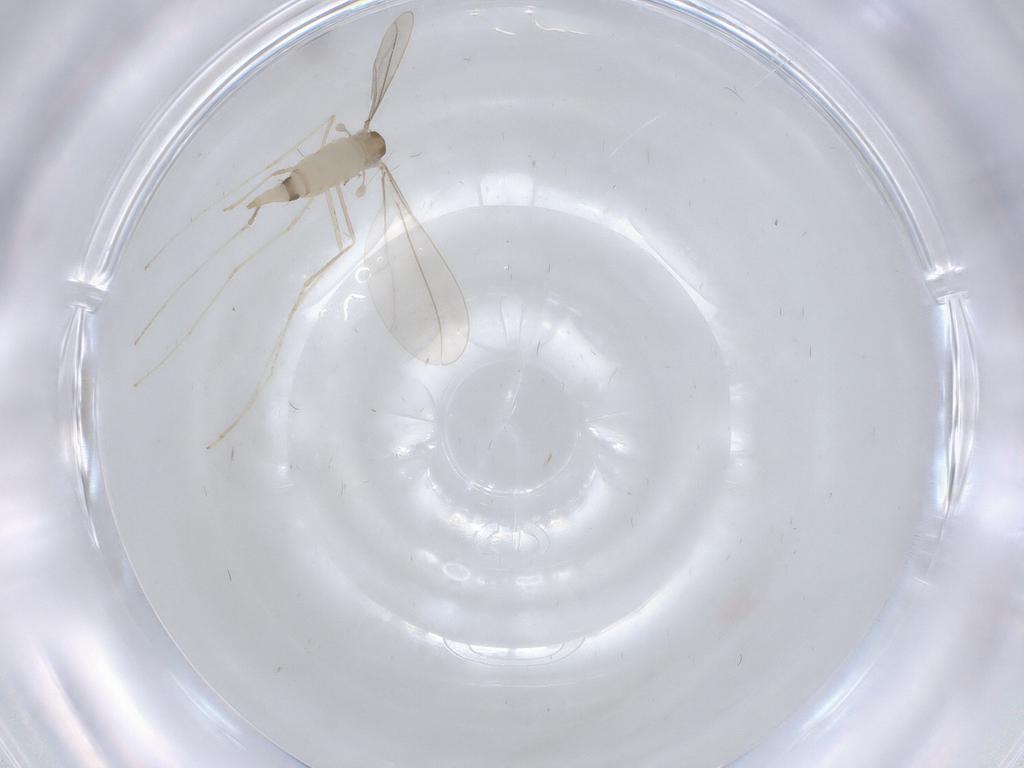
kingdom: Animalia
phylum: Arthropoda
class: Insecta
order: Diptera
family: Cecidomyiidae
